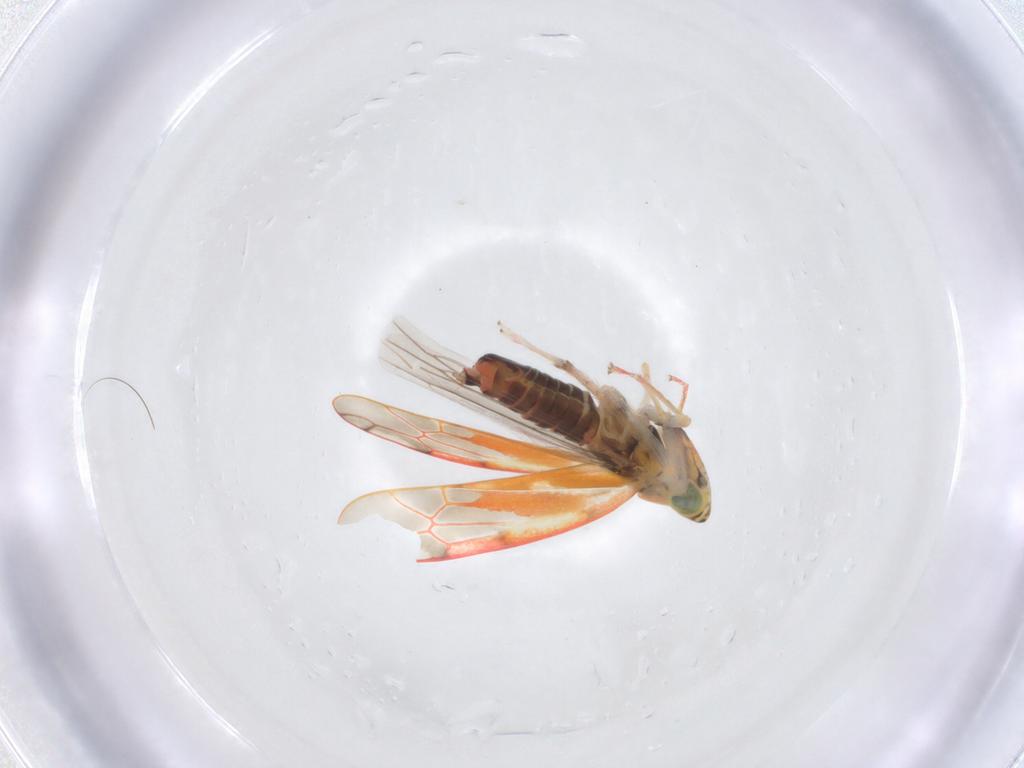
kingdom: Animalia
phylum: Arthropoda
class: Insecta
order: Hemiptera
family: Cicadellidae
